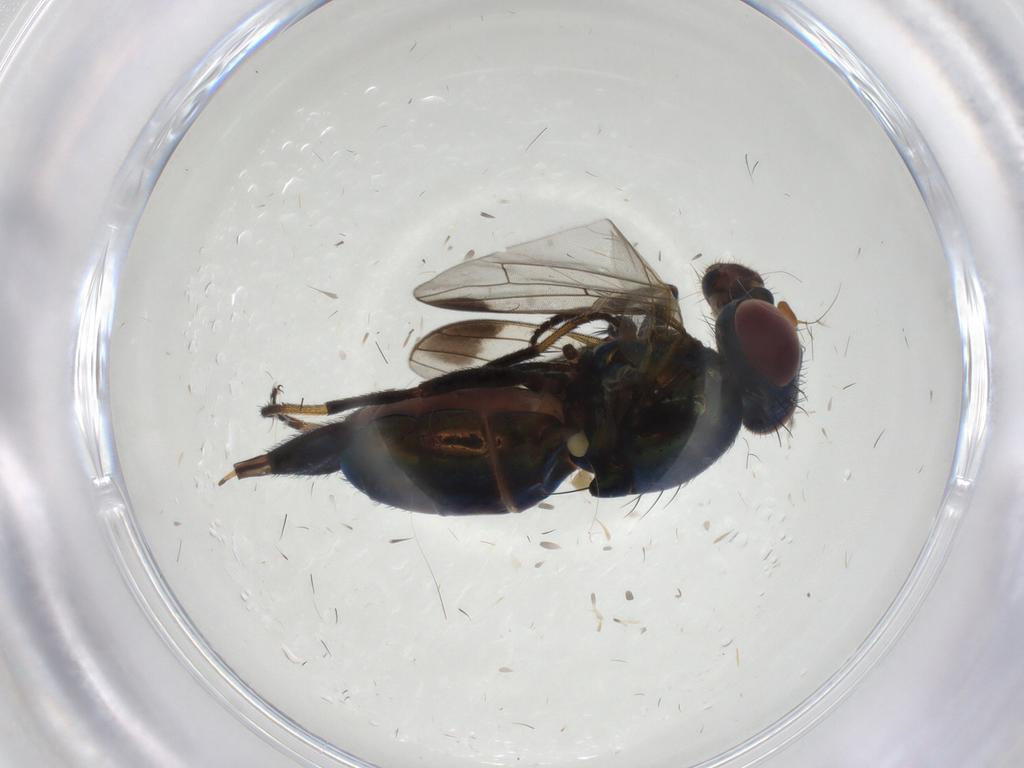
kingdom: Animalia
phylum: Arthropoda
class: Insecta
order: Diptera
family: Ulidiidae
